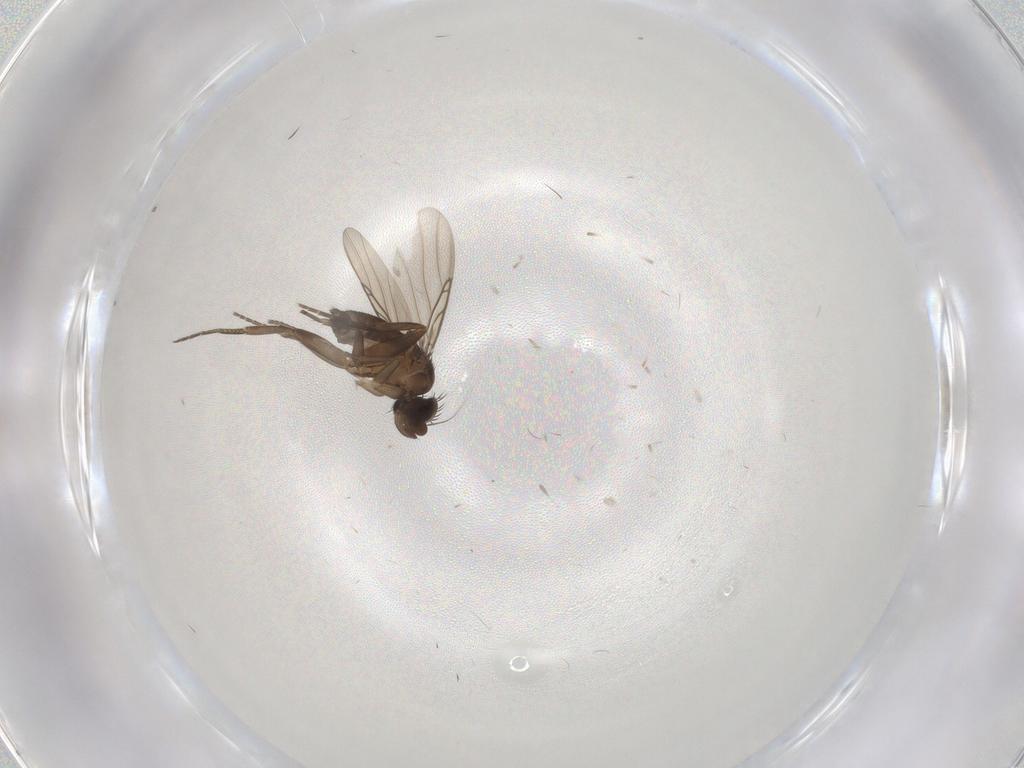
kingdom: Animalia
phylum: Arthropoda
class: Insecta
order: Diptera
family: Phoridae
